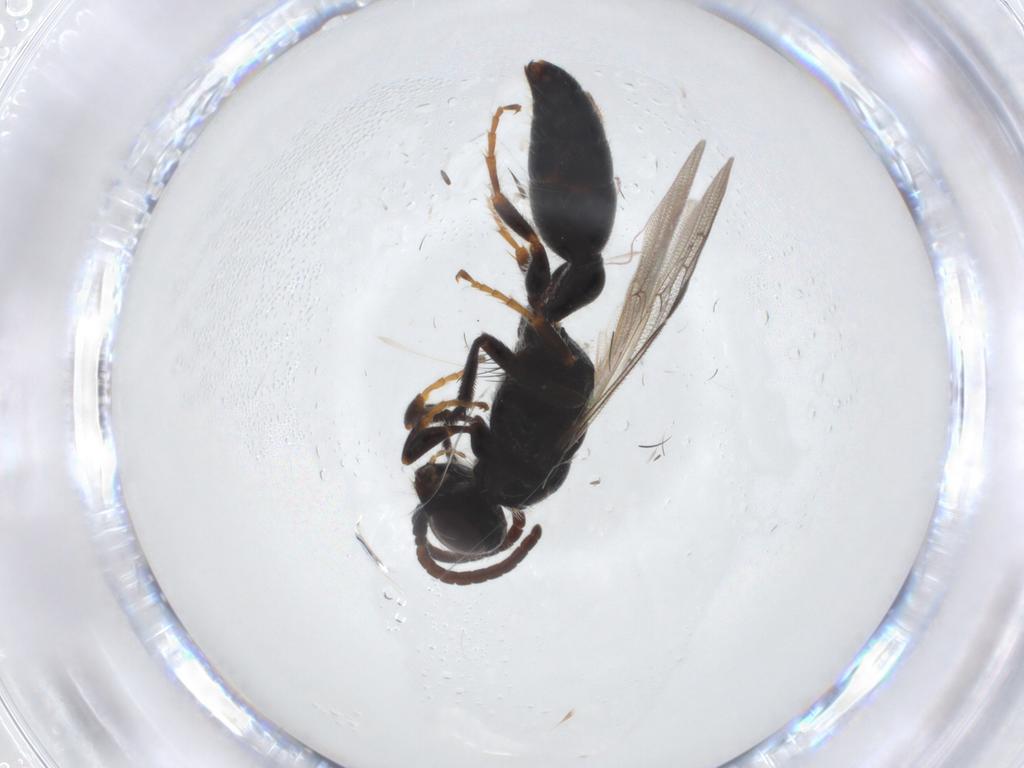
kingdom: Animalia
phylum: Arthropoda
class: Insecta
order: Hymenoptera
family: Tiphiidae
